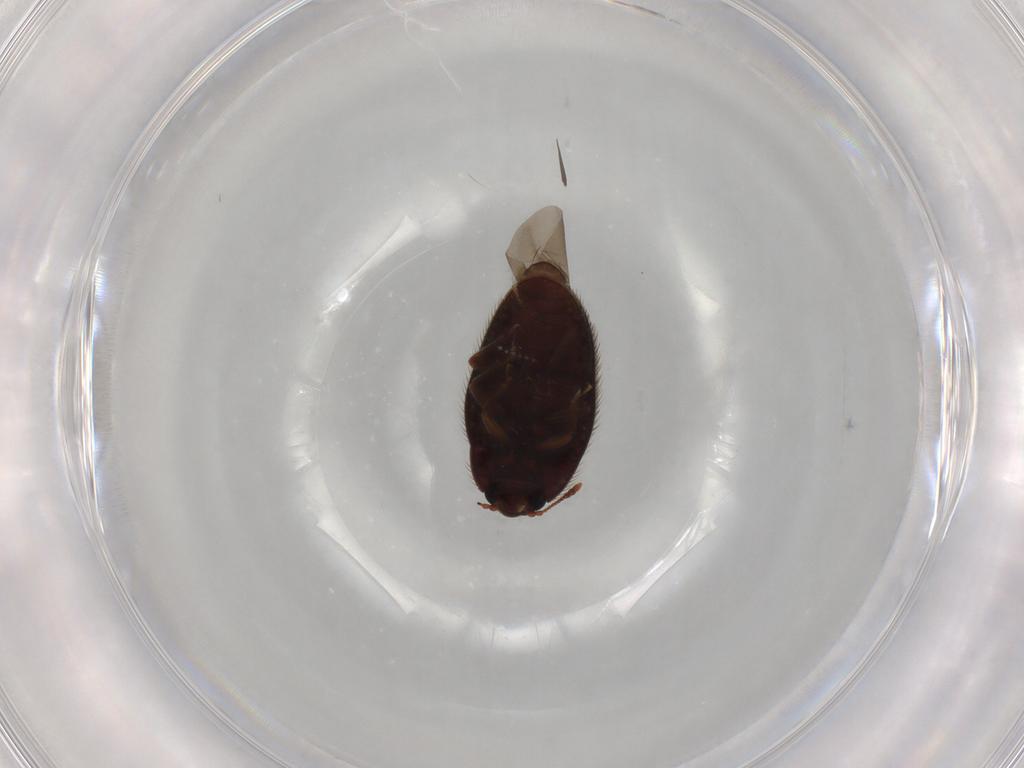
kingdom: Animalia
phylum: Arthropoda
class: Insecta
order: Coleoptera
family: Biphyllidae
